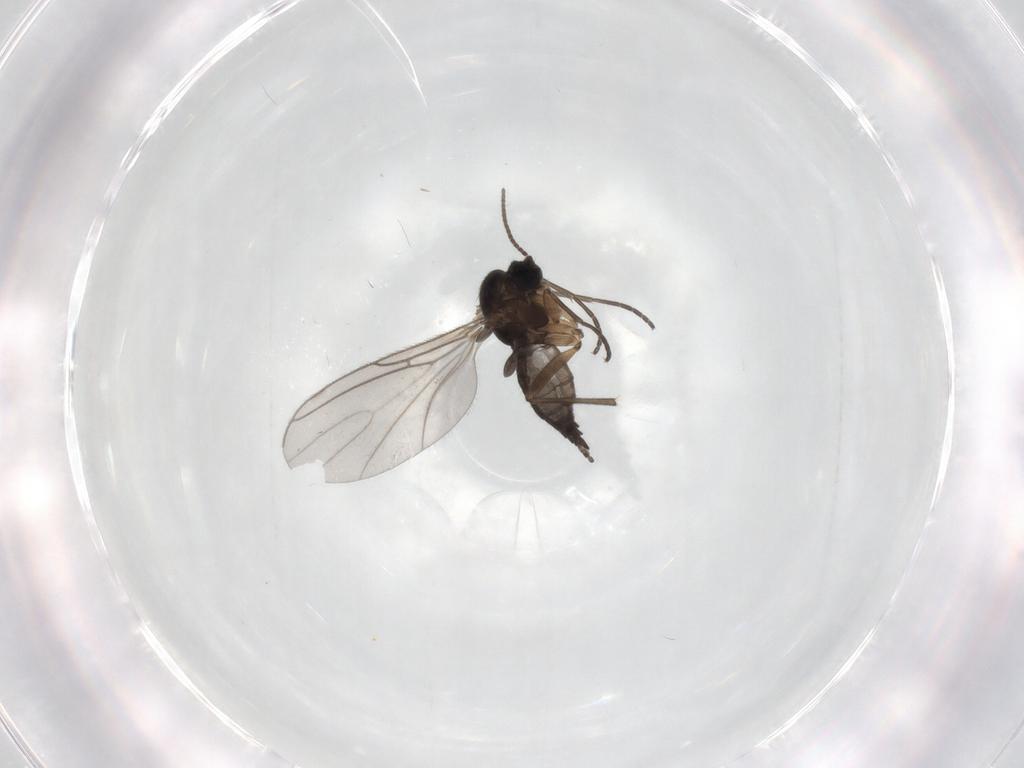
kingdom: Animalia
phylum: Arthropoda
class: Insecta
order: Diptera
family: Sciaridae
